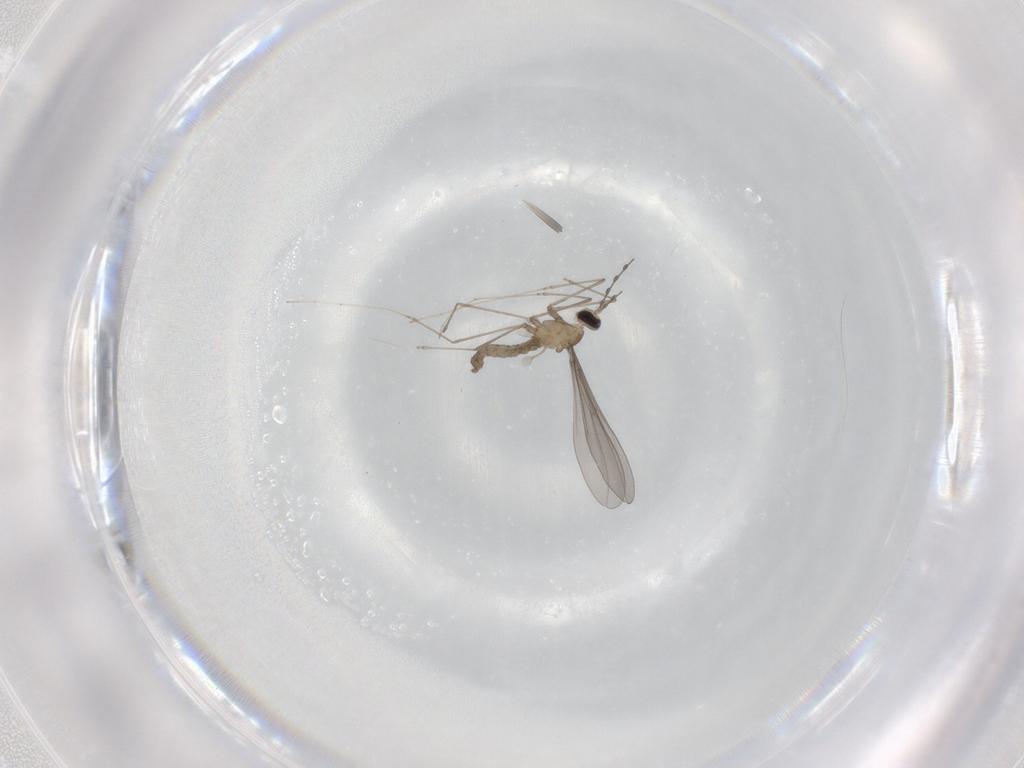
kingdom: Animalia
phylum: Arthropoda
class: Insecta
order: Diptera
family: Cecidomyiidae
